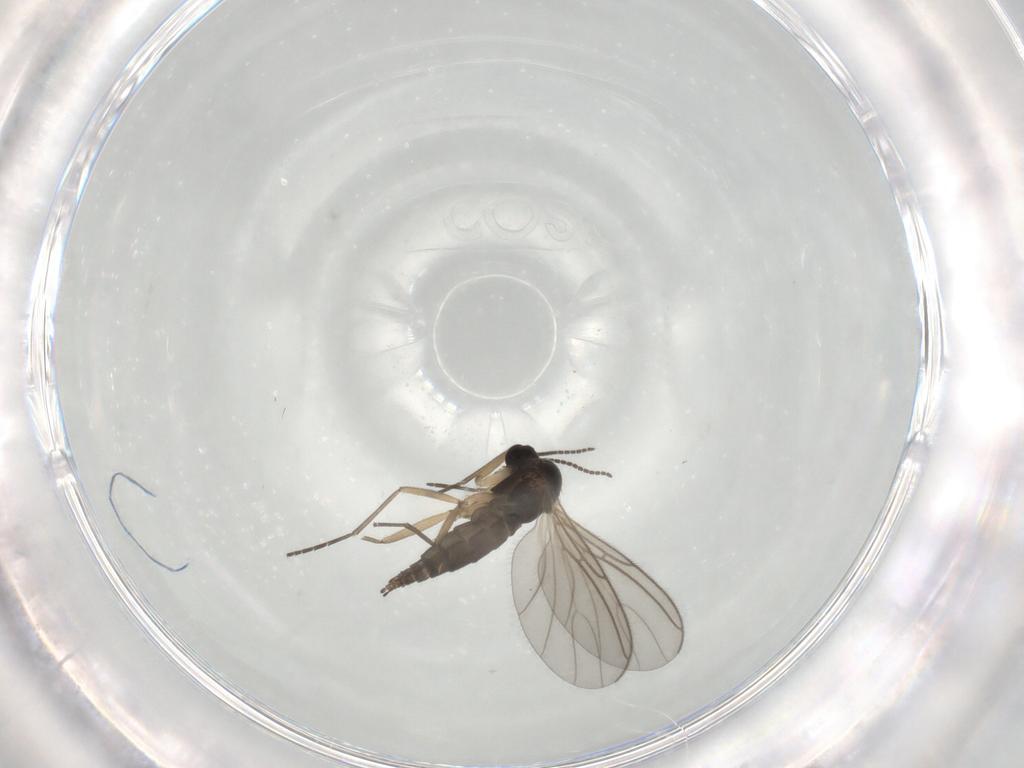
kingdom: Animalia
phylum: Arthropoda
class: Insecta
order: Diptera
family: Sciaridae
